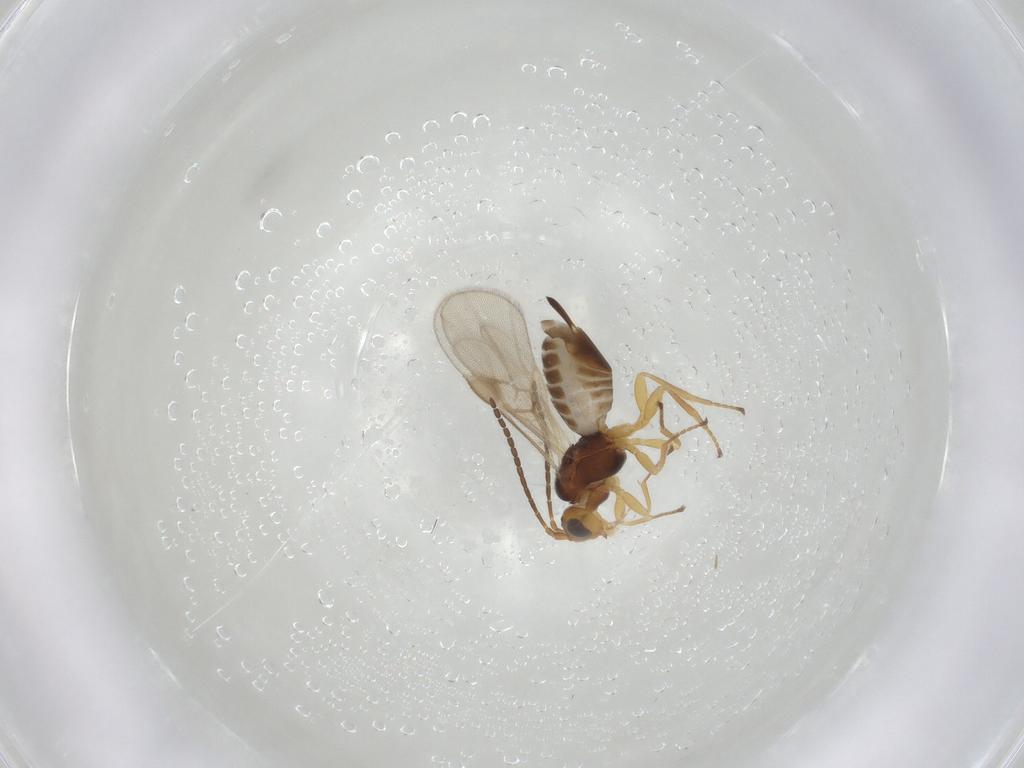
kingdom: Animalia
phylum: Arthropoda
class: Insecta
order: Hymenoptera
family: Braconidae
